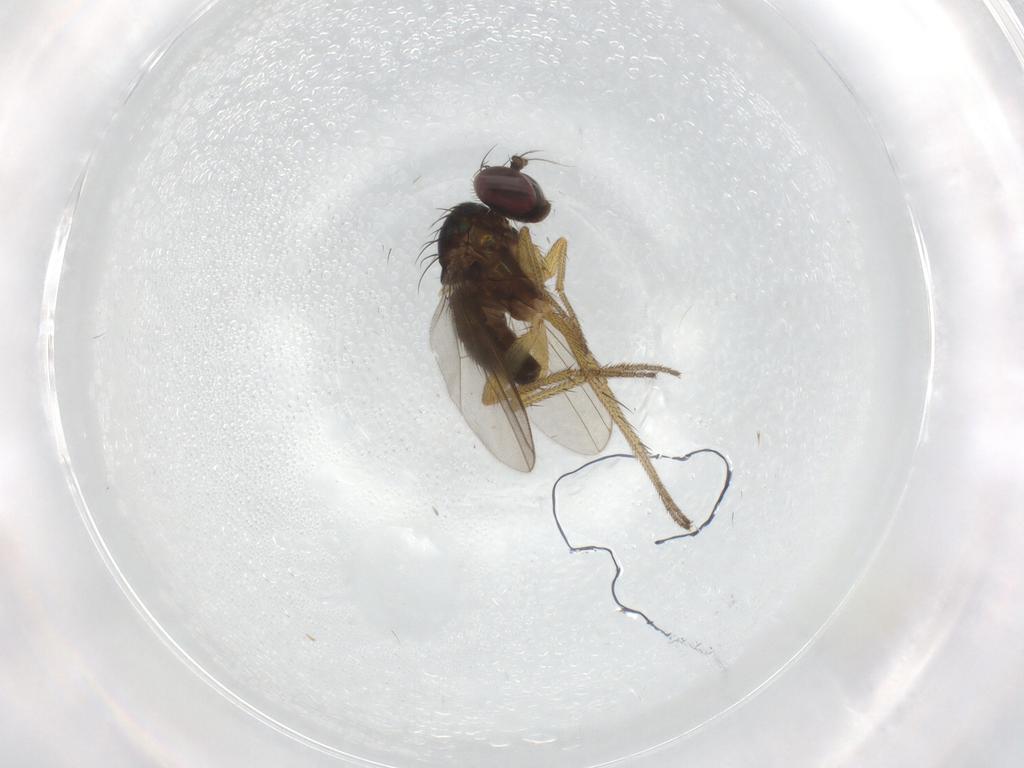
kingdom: Animalia
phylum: Arthropoda
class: Insecta
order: Diptera
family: Dolichopodidae
